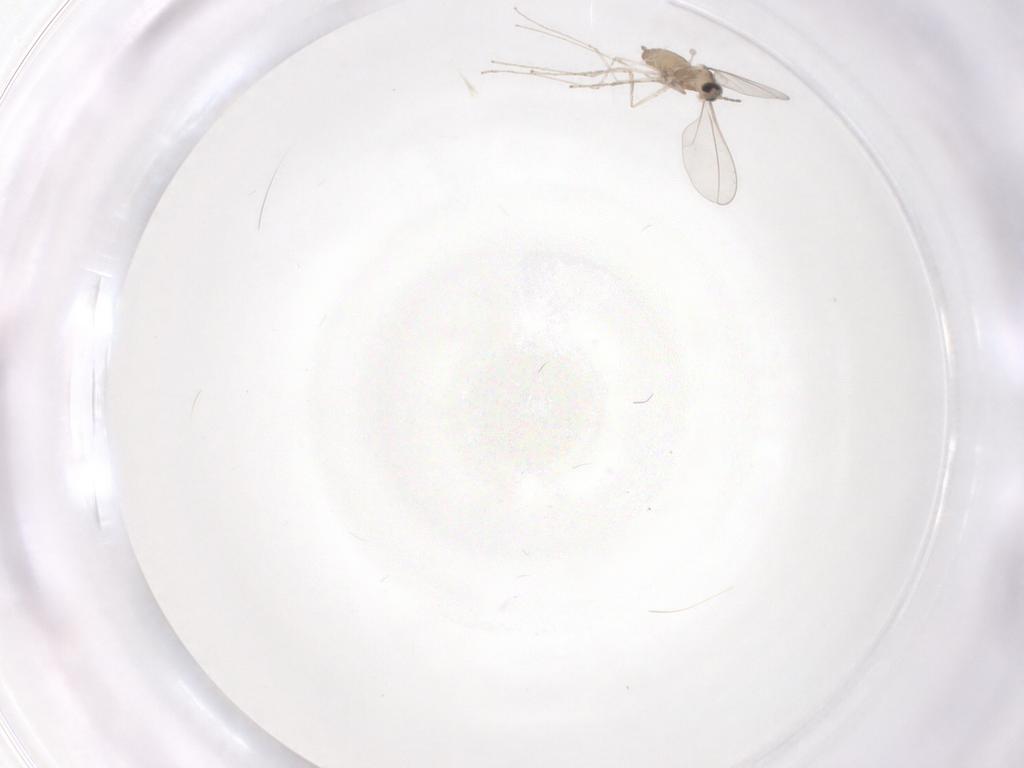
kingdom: Animalia
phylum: Arthropoda
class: Insecta
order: Diptera
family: Cecidomyiidae
